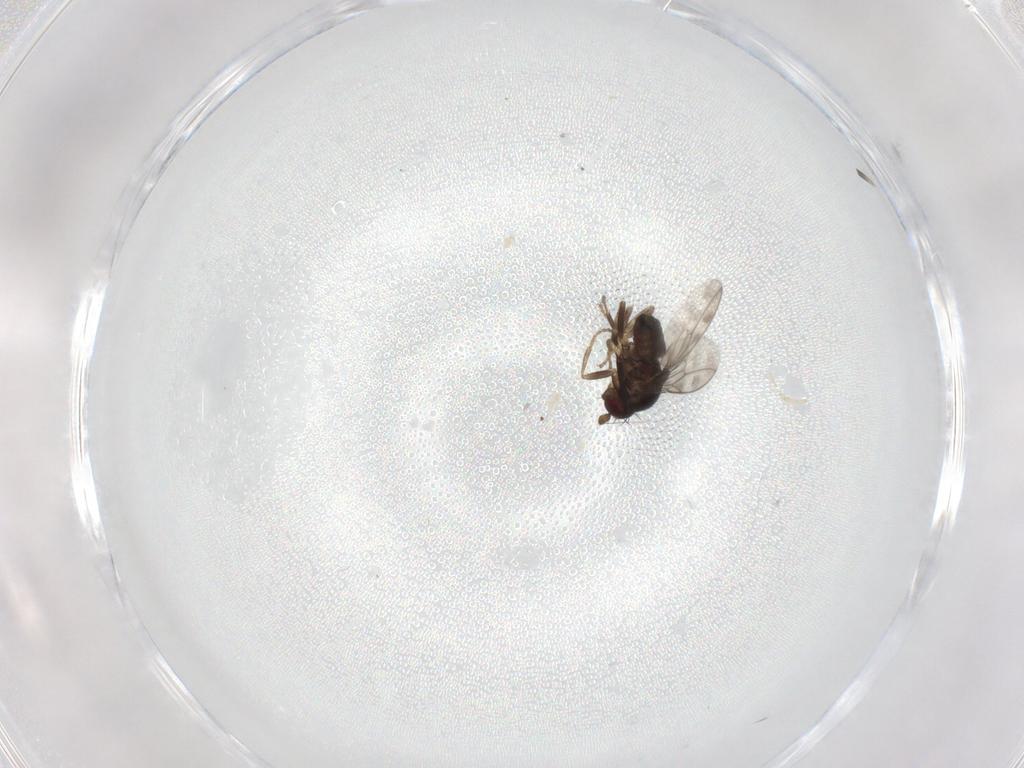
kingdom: Animalia
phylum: Arthropoda
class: Insecta
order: Diptera
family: Sphaeroceridae
